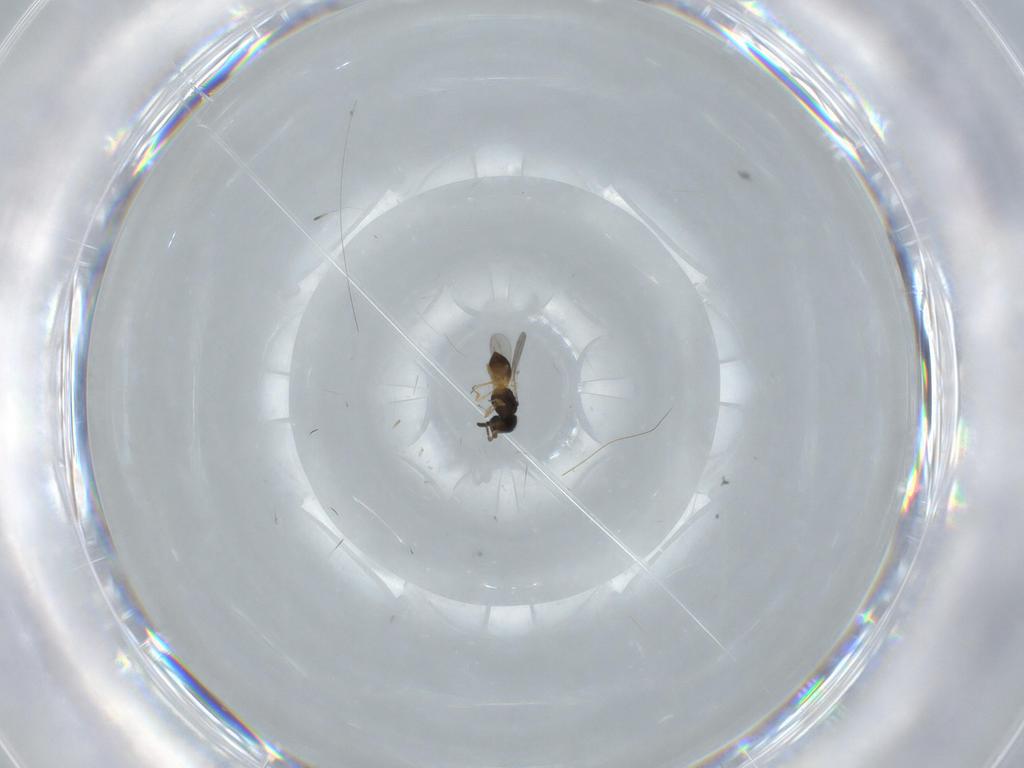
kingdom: Animalia
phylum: Arthropoda
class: Insecta
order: Hymenoptera
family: Scelionidae
